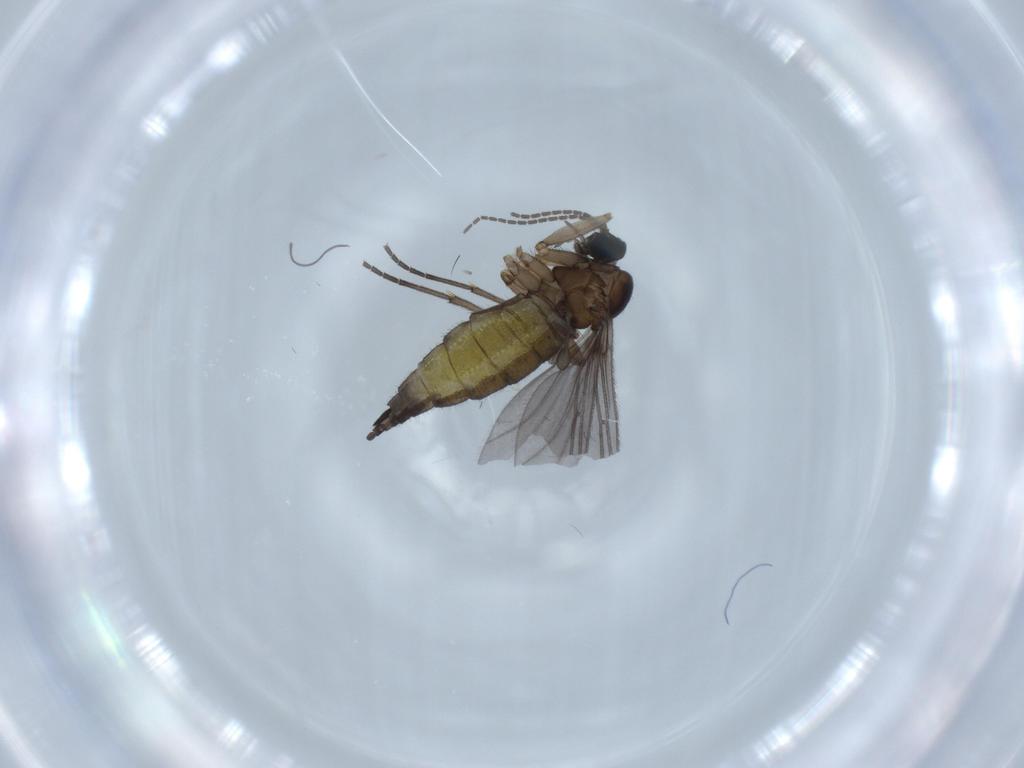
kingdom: Animalia
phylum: Arthropoda
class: Insecta
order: Diptera
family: Sciaridae
